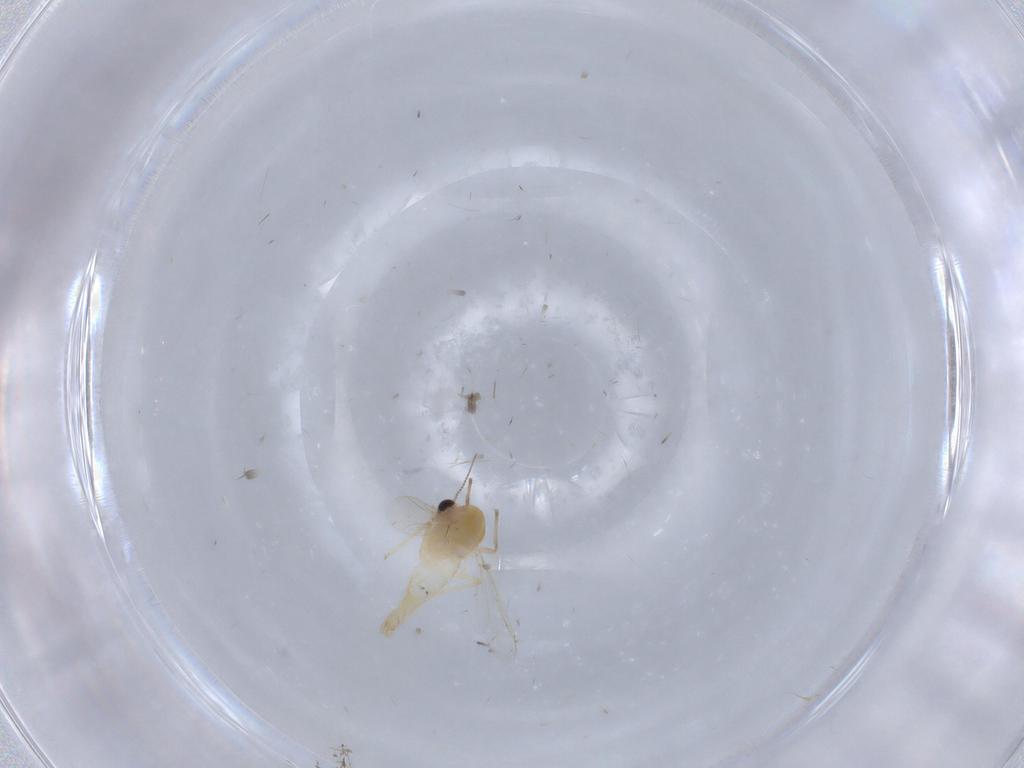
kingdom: Animalia
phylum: Arthropoda
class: Insecta
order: Diptera
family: Chironomidae
